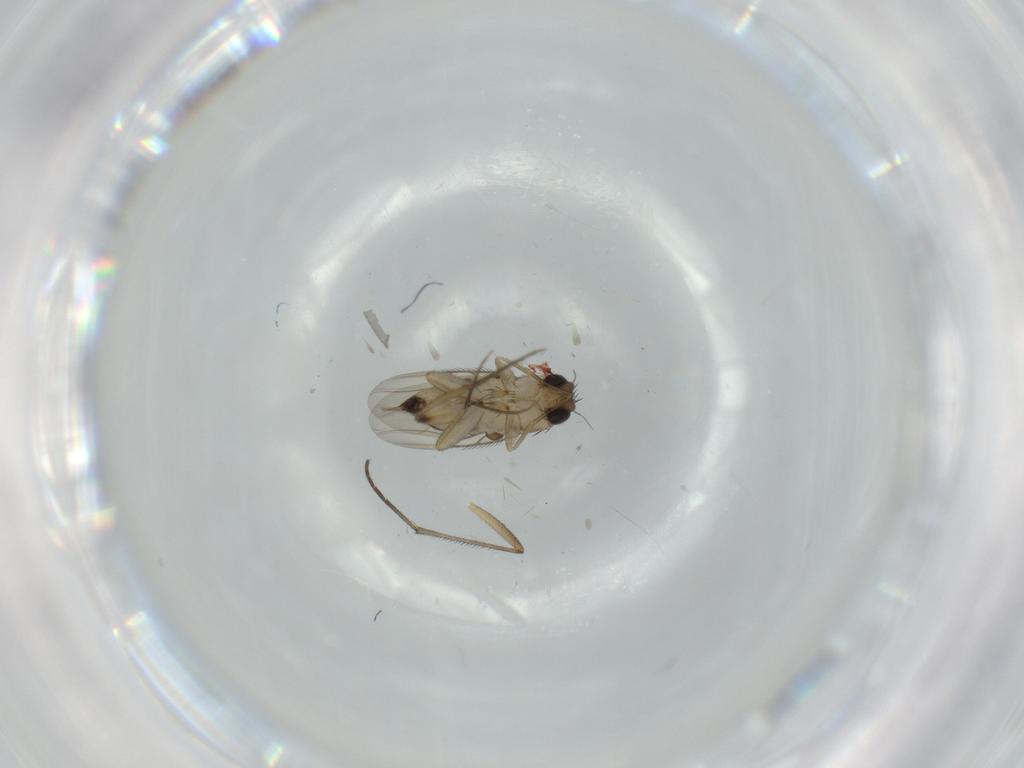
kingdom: Animalia
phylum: Arthropoda
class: Insecta
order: Diptera
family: Phoridae
